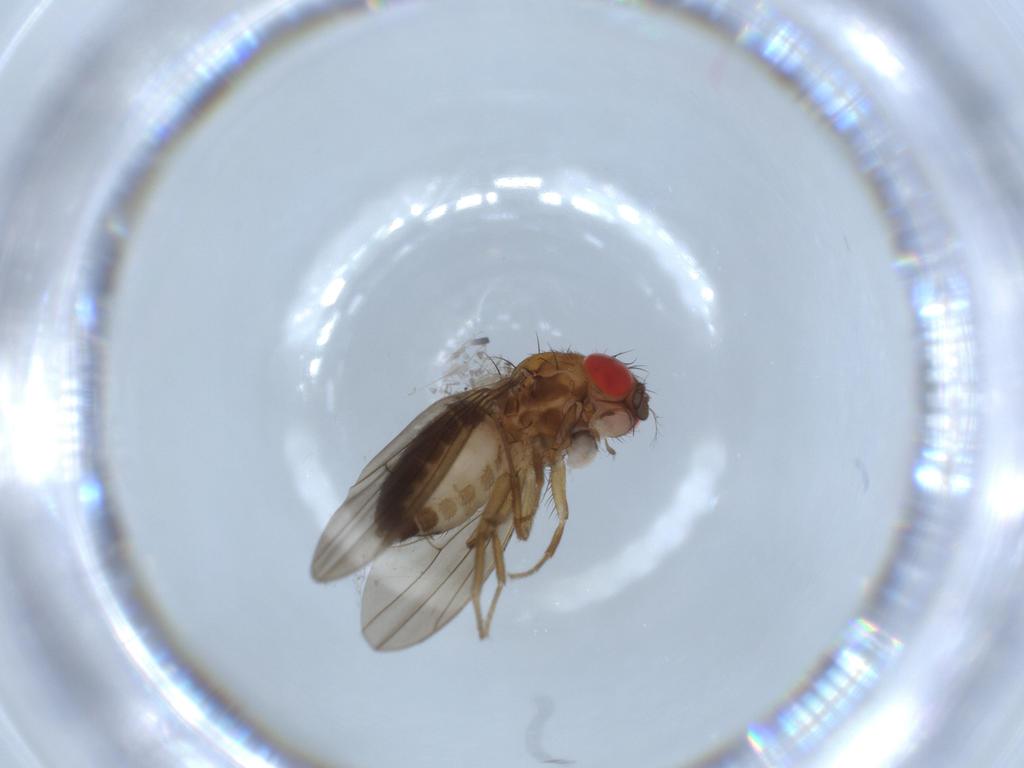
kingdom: Animalia
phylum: Arthropoda
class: Insecta
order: Diptera
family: Drosophilidae
